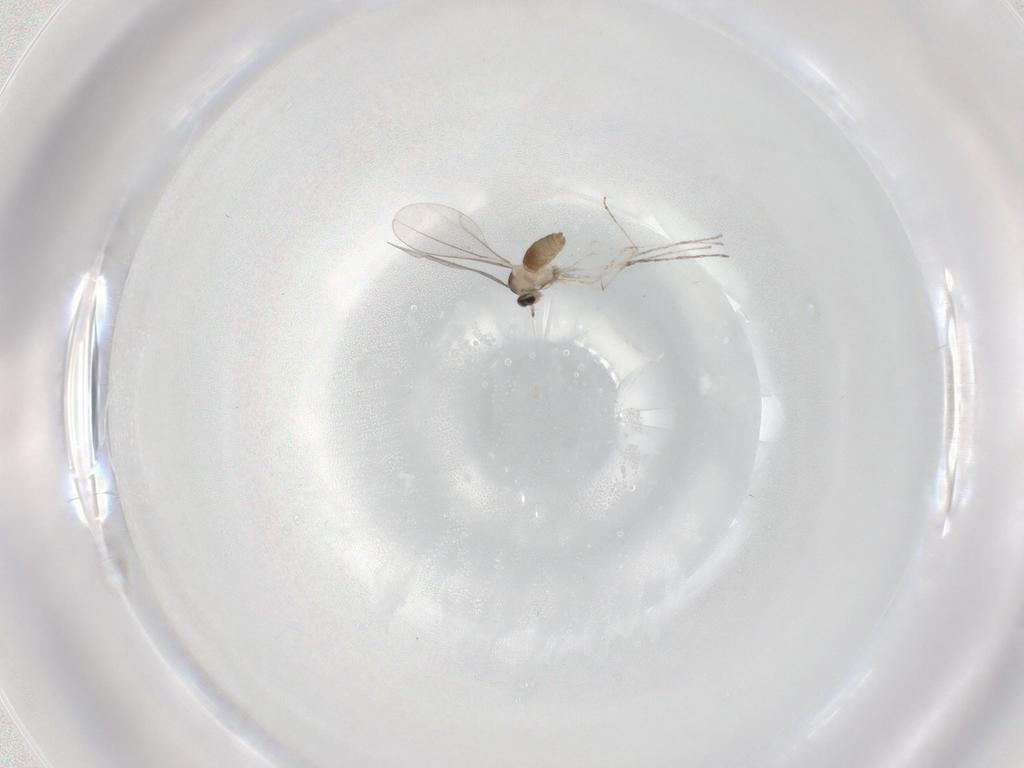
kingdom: Animalia
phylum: Arthropoda
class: Insecta
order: Diptera
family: Cecidomyiidae
